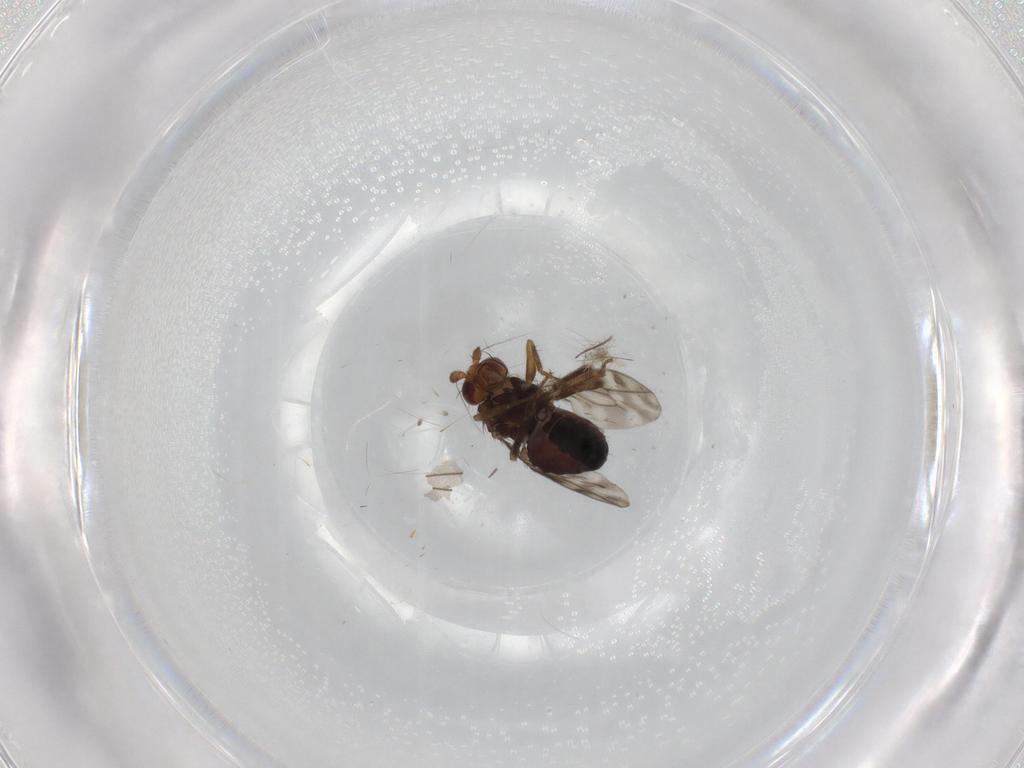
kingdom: Animalia
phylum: Arthropoda
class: Insecta
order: Diptera
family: Sphaeroceridae
